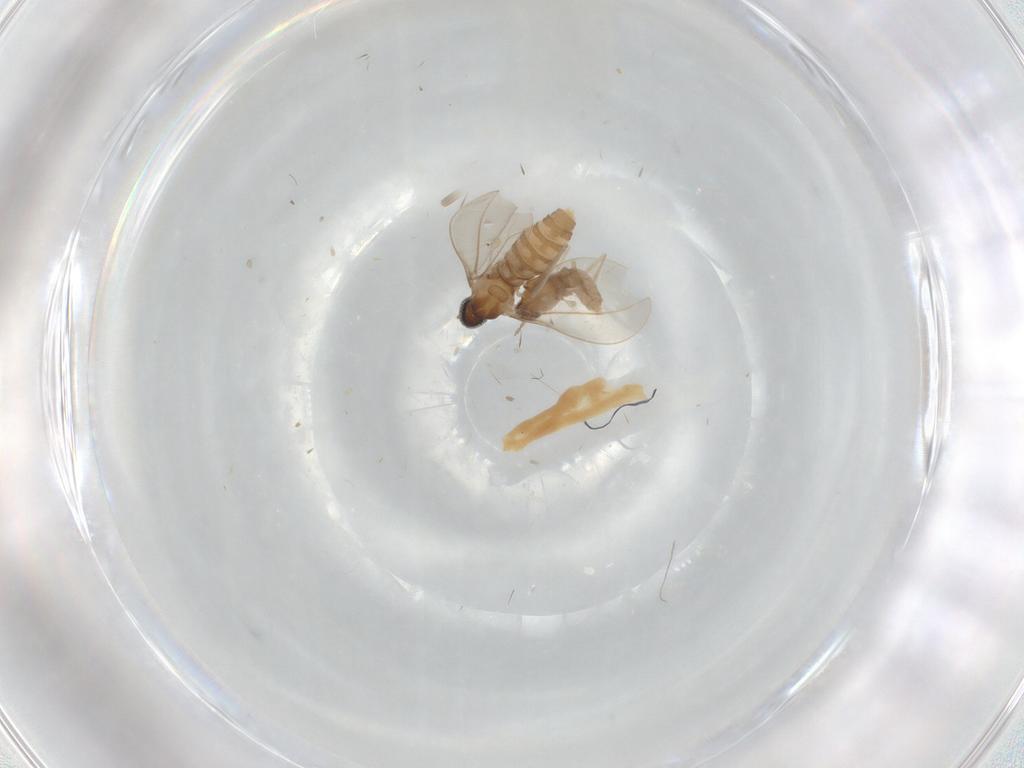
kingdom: Animalia
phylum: Arthropoda
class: Insecta
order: Diptera
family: Cecidomyiidae
